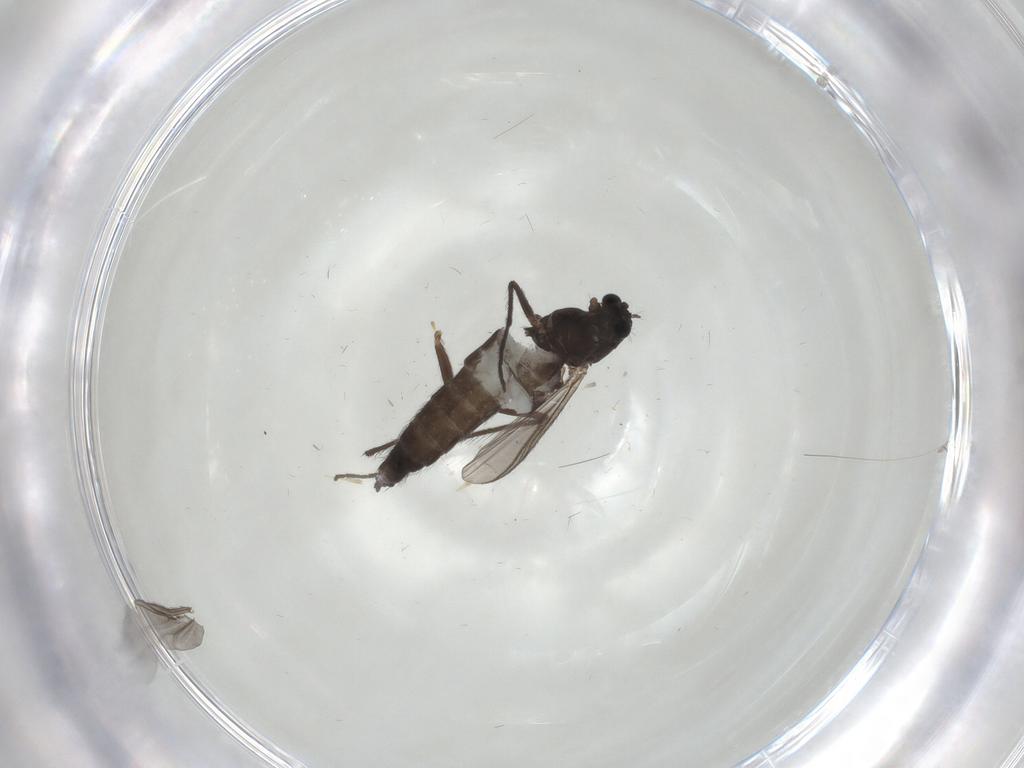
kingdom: Animalia
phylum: Arthropoda
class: Insecta
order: Diptera
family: Chironomidae
